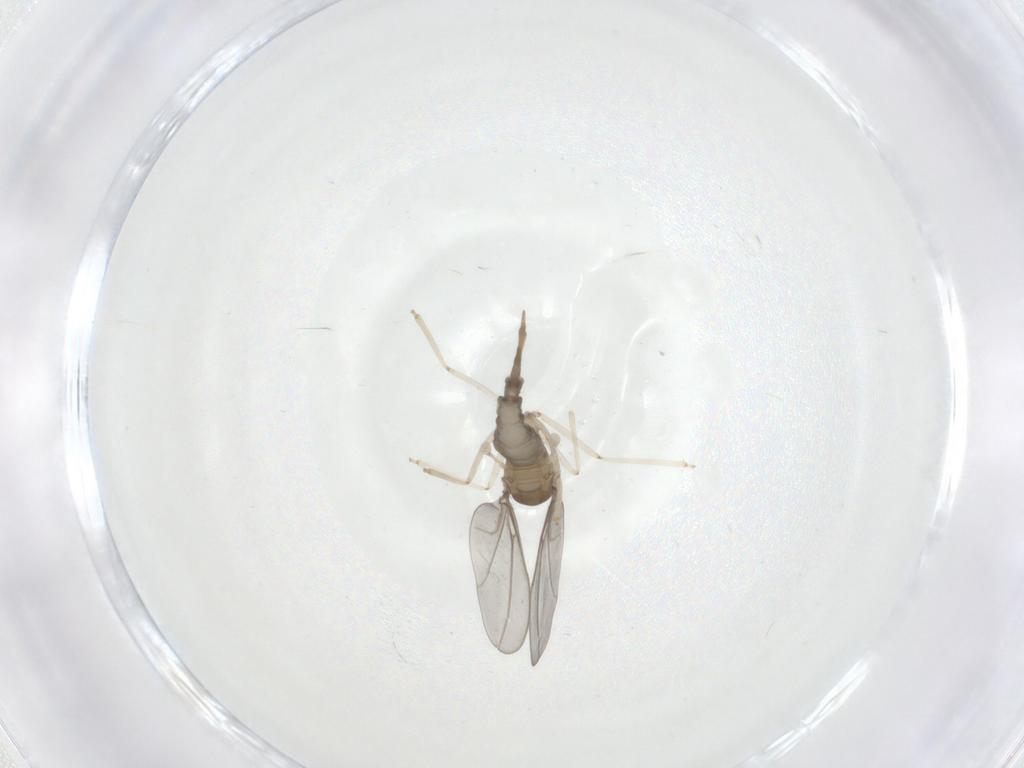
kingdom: Animalia
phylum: Arthropoda
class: Insecta
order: Diptera
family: Cecidomyiidae
